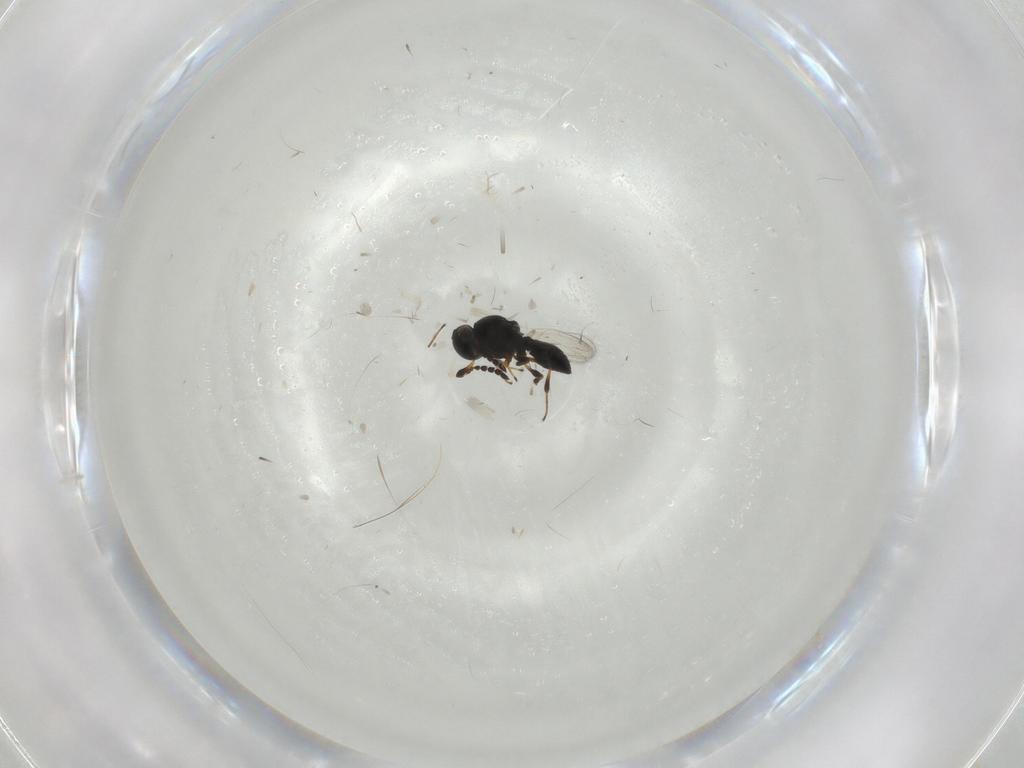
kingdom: Animalia
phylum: Arthropoda
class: Insecta
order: Hymenoptera
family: Platygastridae
